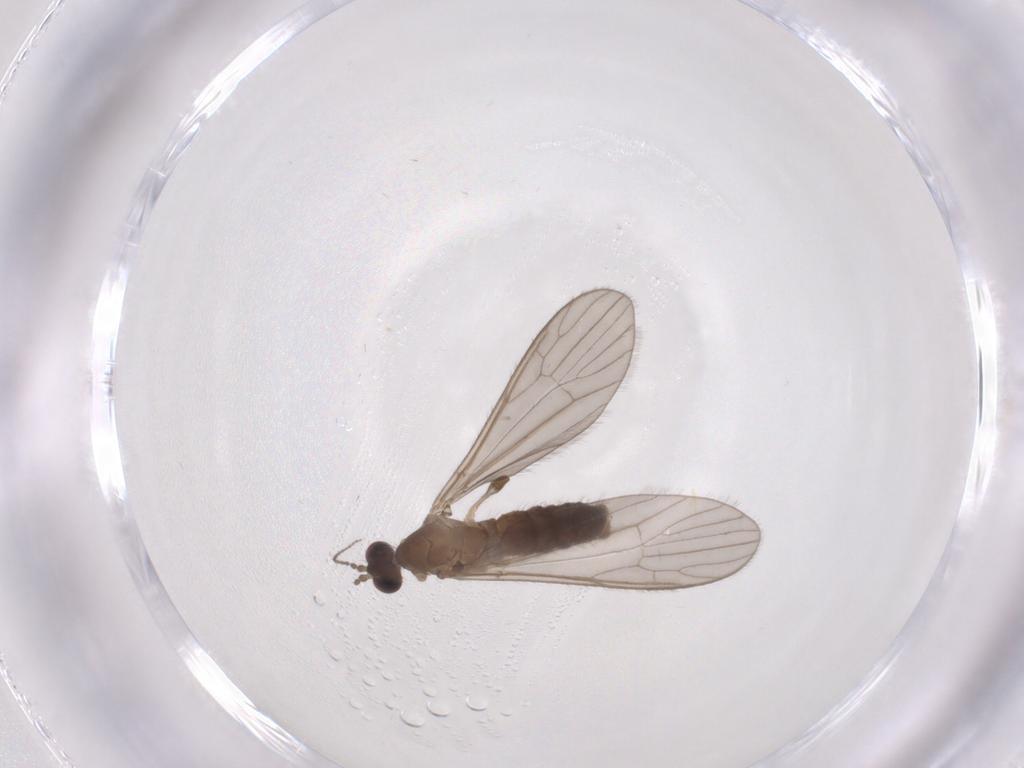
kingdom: Animalia
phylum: Arthropoda
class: Insecta
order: Diptera
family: Limoniidae
